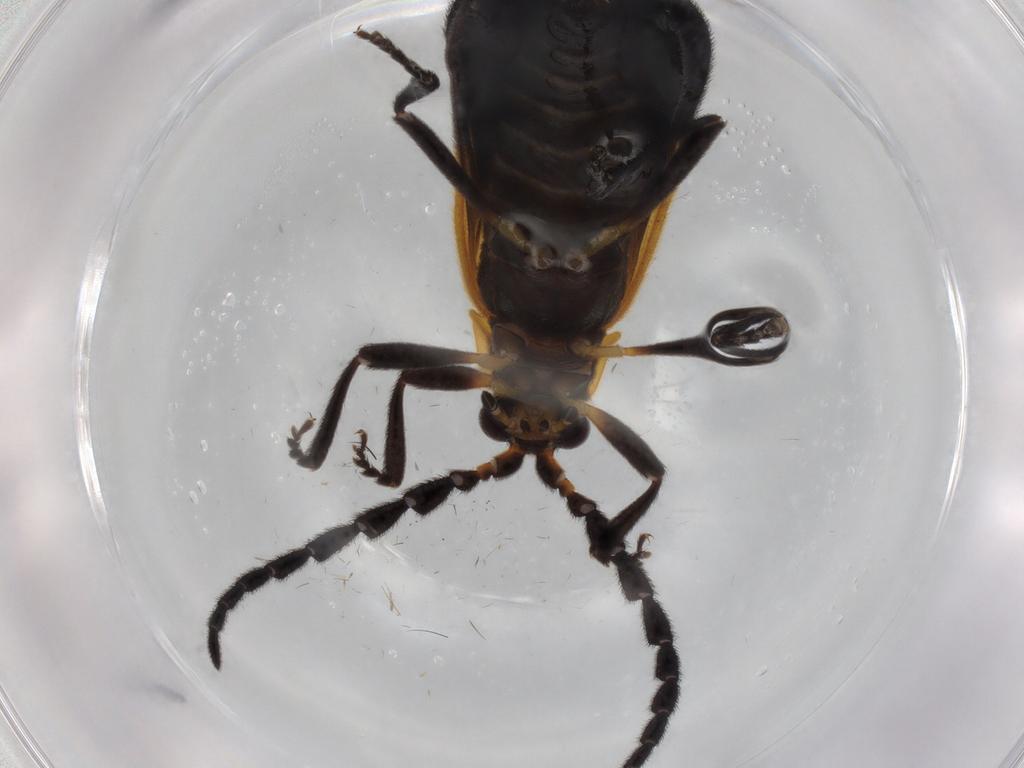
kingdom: Animalia
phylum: Arthropoda
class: Insecta
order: Coleoptera
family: Lycidae
